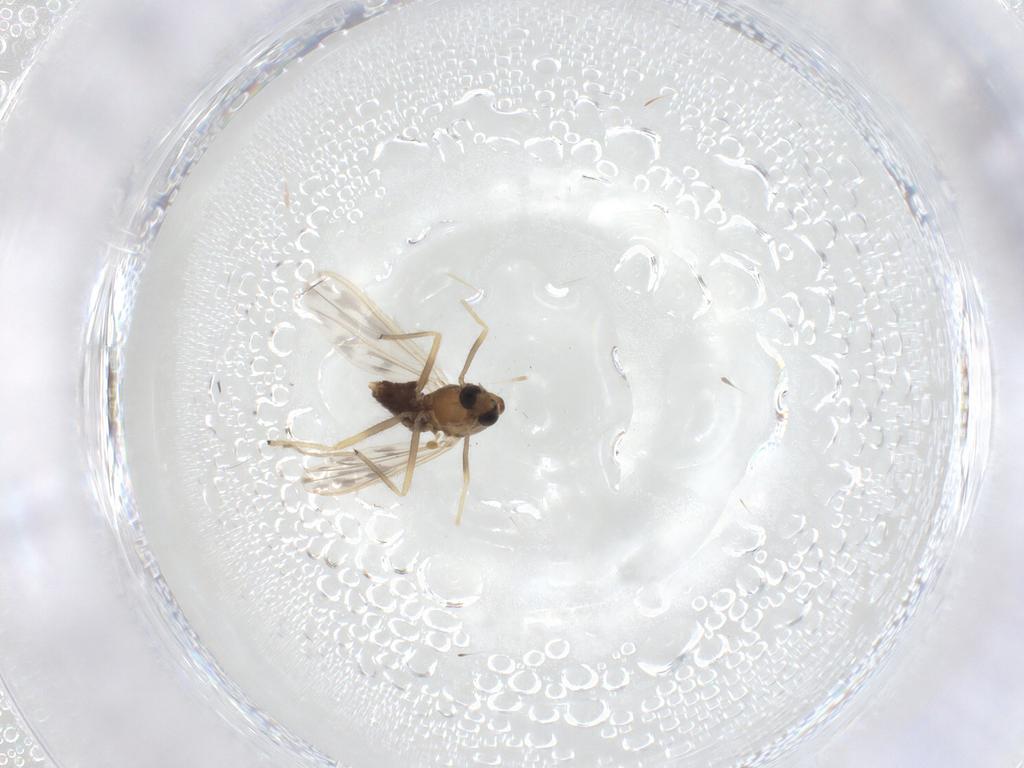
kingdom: Animalia
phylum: Arthropoda
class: Insecta
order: Diptera
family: Chironomidae
